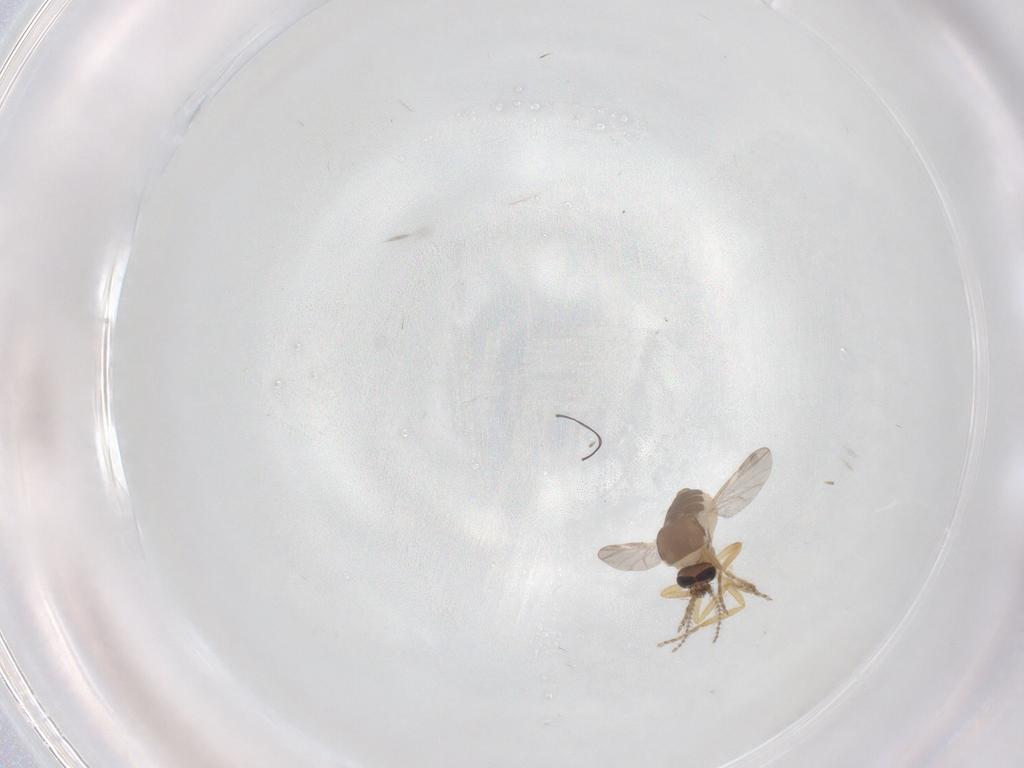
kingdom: Animalia
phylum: Arthropoda
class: Insecta
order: Diptera
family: Ceratopogonidae
